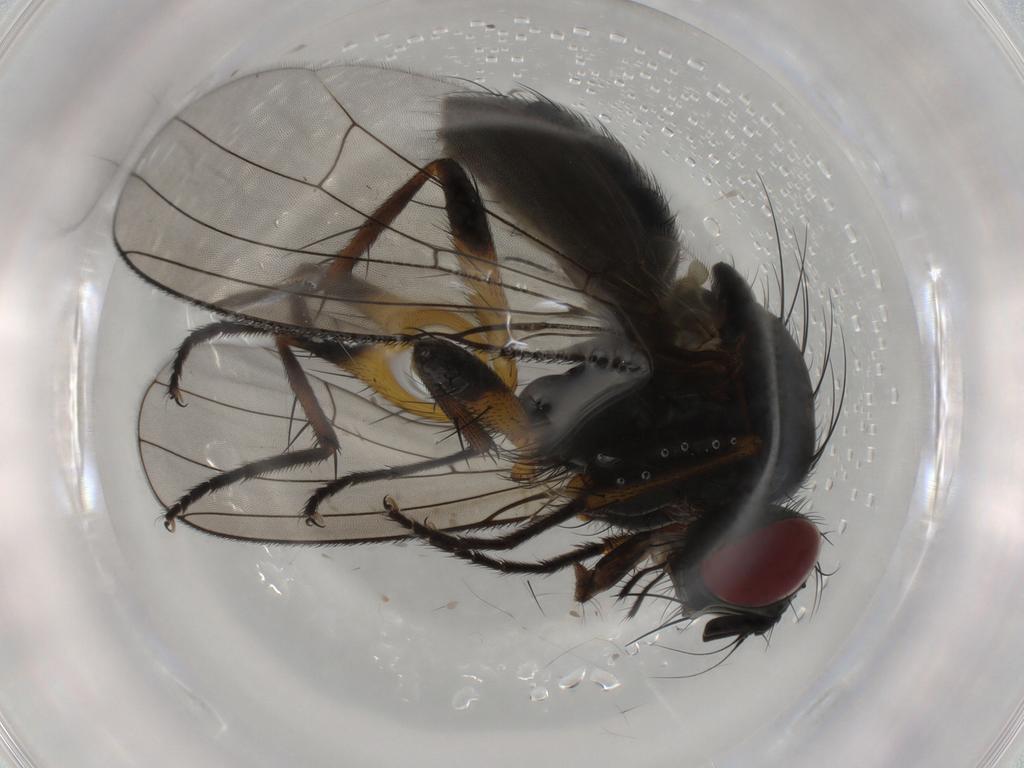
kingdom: Animalia
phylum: Arthropoda
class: Insecta
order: Diptera
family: Muscidae
